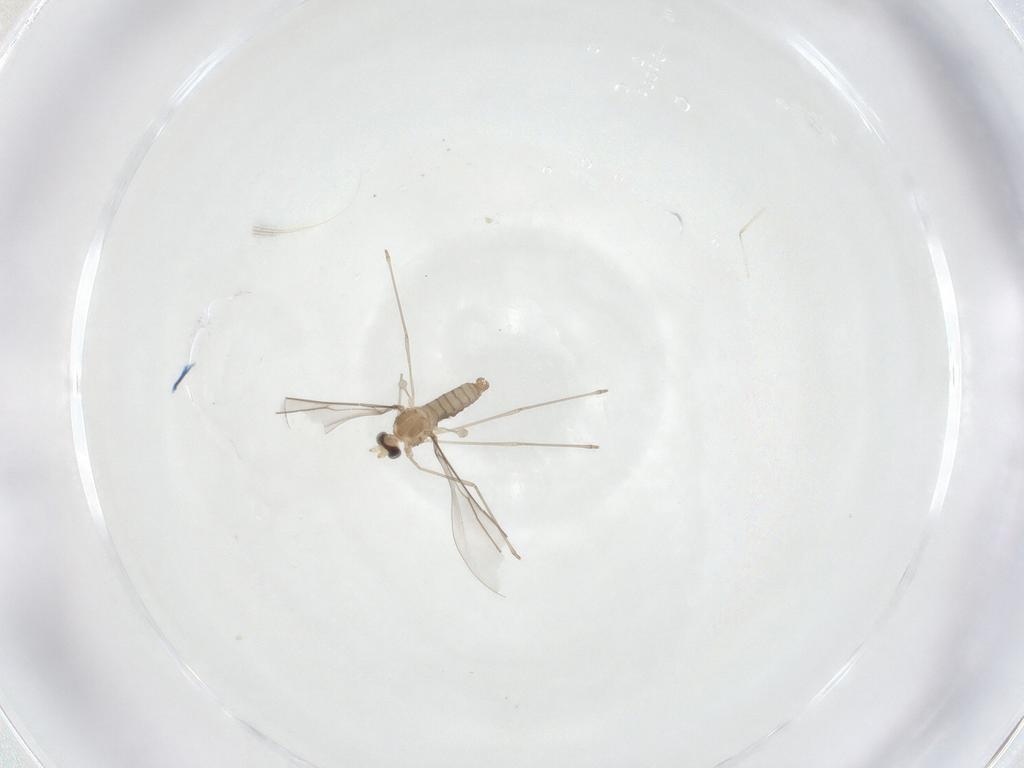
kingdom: Animalia
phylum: Arthropoda
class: Insecta
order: Diptera
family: Cecidomyiidae
